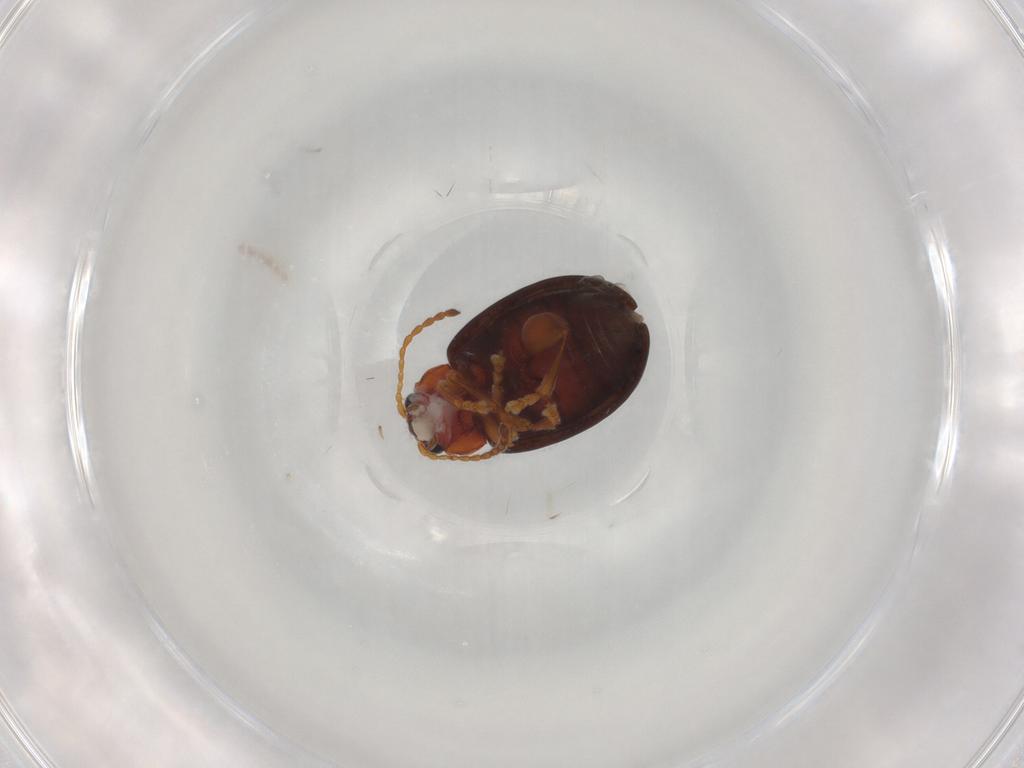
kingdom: Animalia
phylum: Arthropoda
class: Insecta
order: Coleoptera
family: Chrysomelidae
